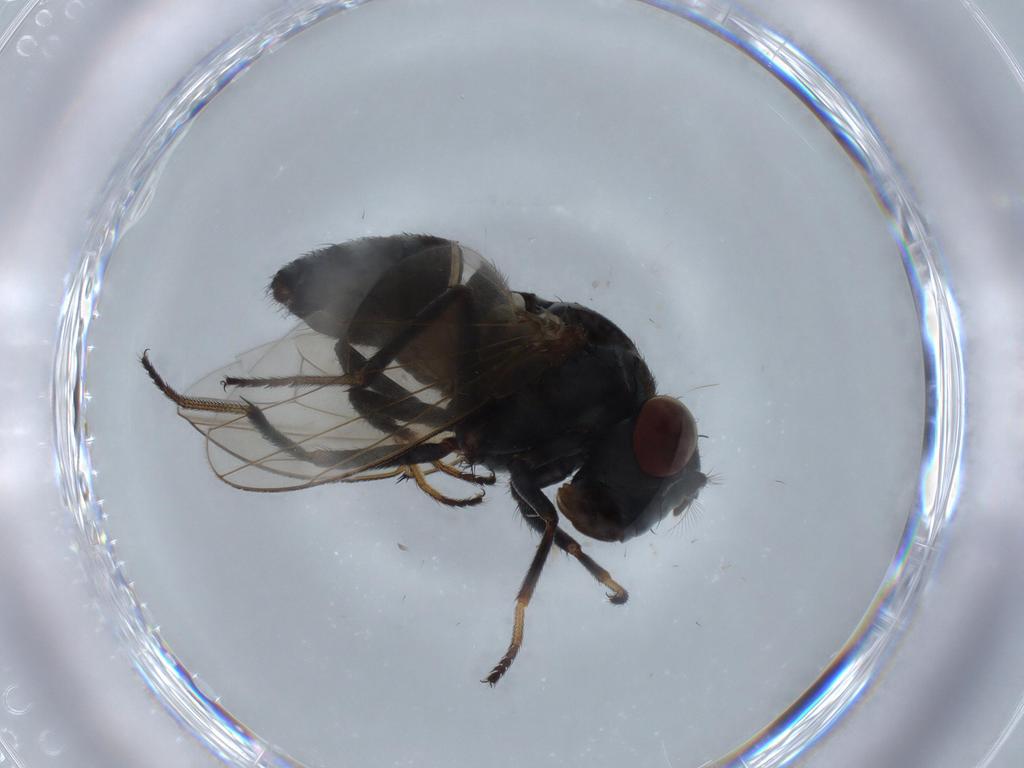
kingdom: Animalia
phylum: Arthropoda
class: Insecta
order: Diptera
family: Ephydridae
